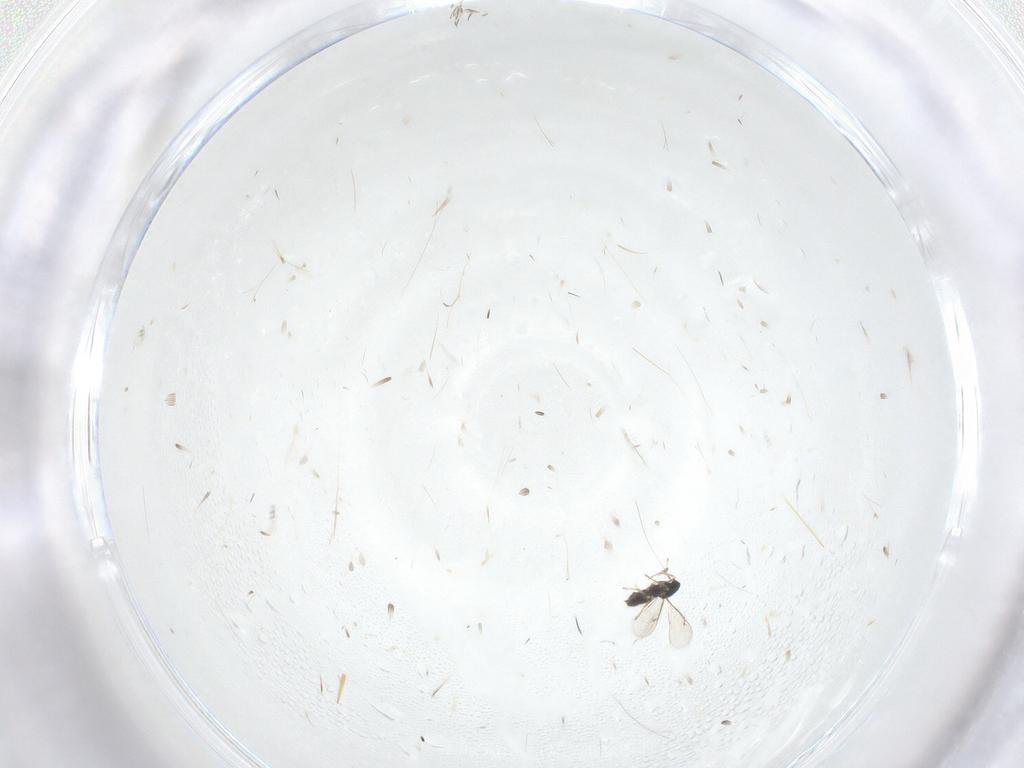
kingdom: Animalia
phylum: Arthropoda
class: Insecta
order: Hymenoptera
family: Eulophidae
